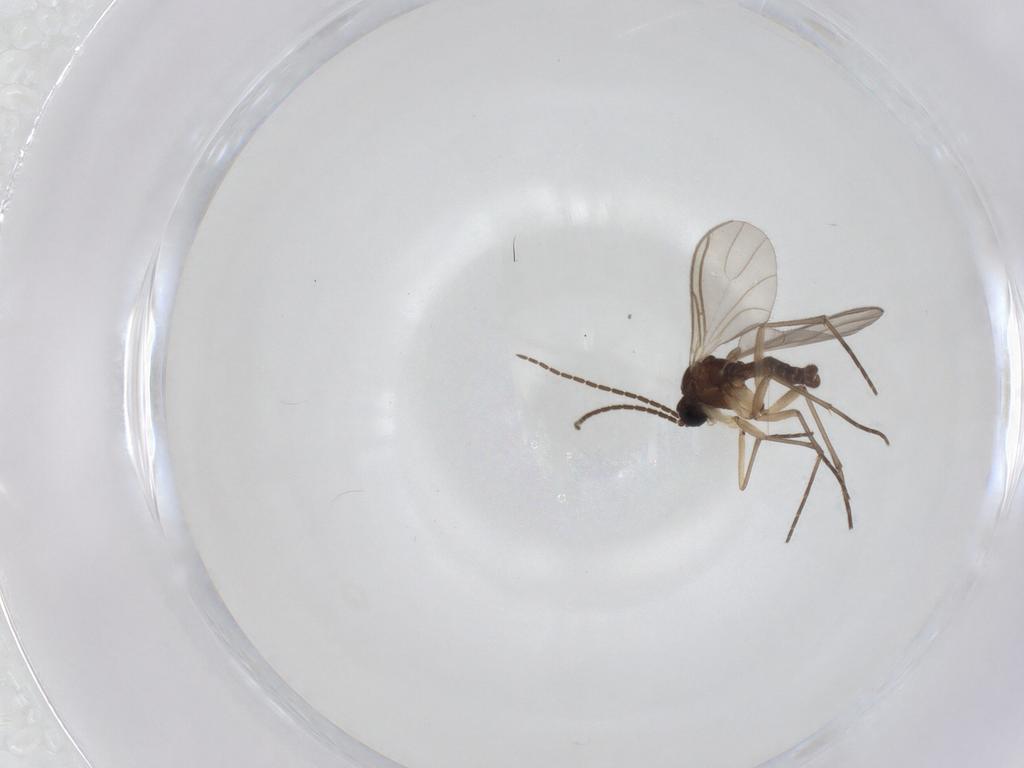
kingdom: Animalia
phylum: Arthropoda
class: Insecta
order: Diptera
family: Sciaridae
